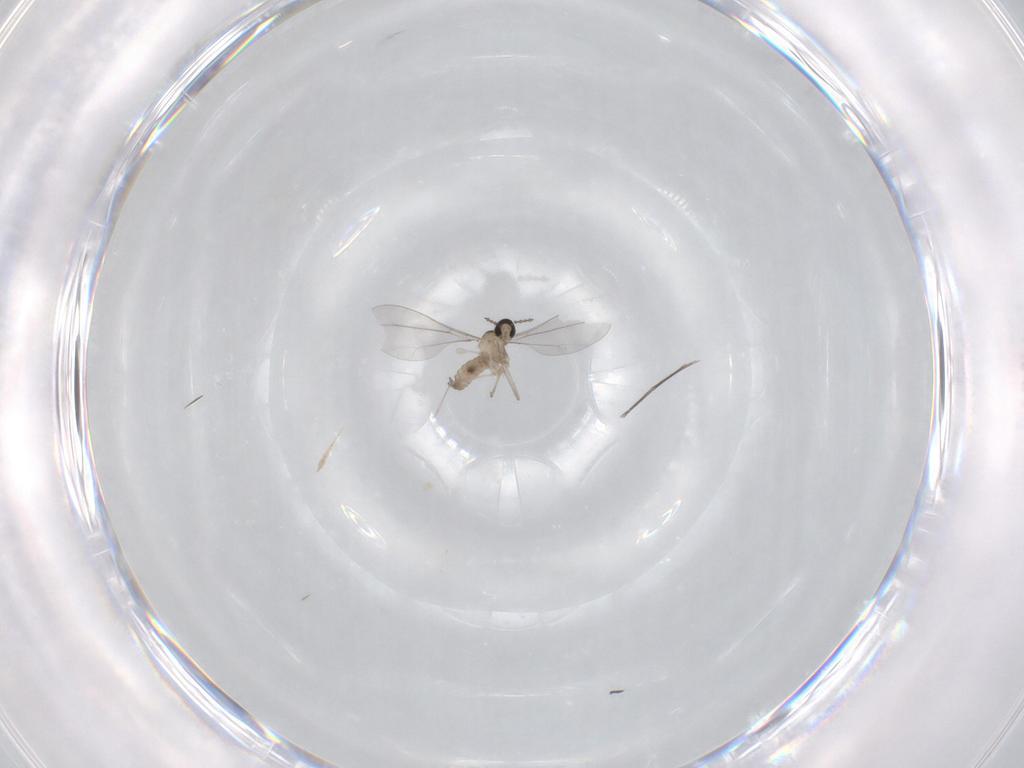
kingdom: Animalia
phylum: Arthropoda
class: Insecta
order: Diptera
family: Cecidomyiidae
